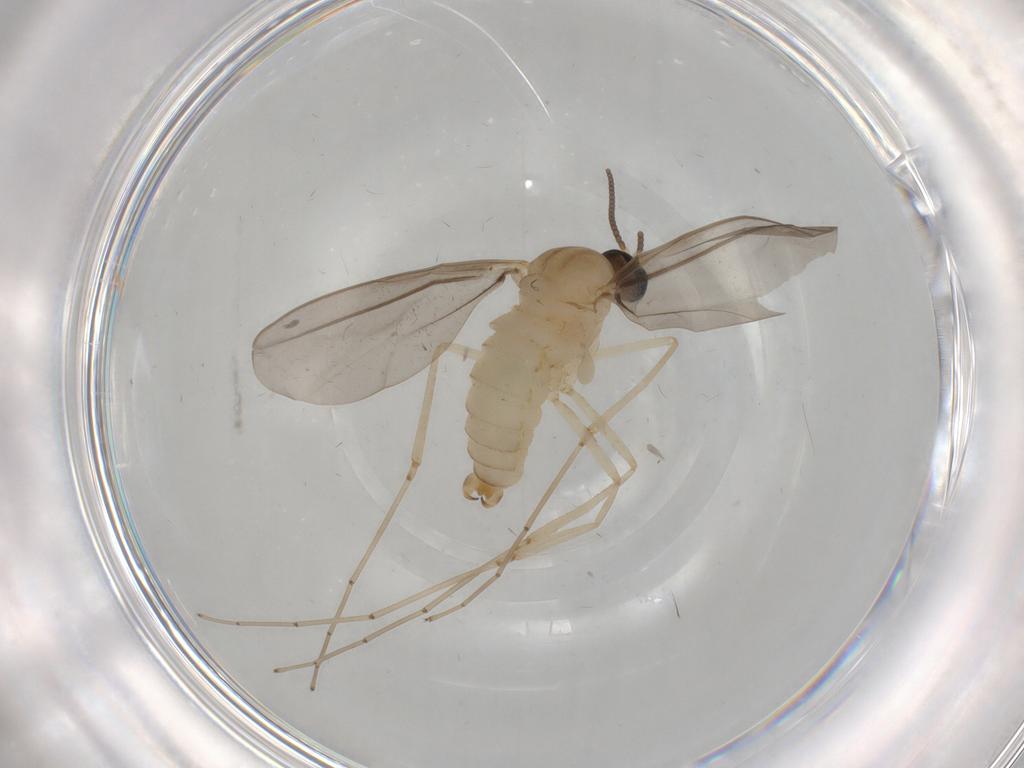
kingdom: Animalia
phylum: Arthropoda
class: Insecta
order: Diptera
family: Cecidomyiidae
